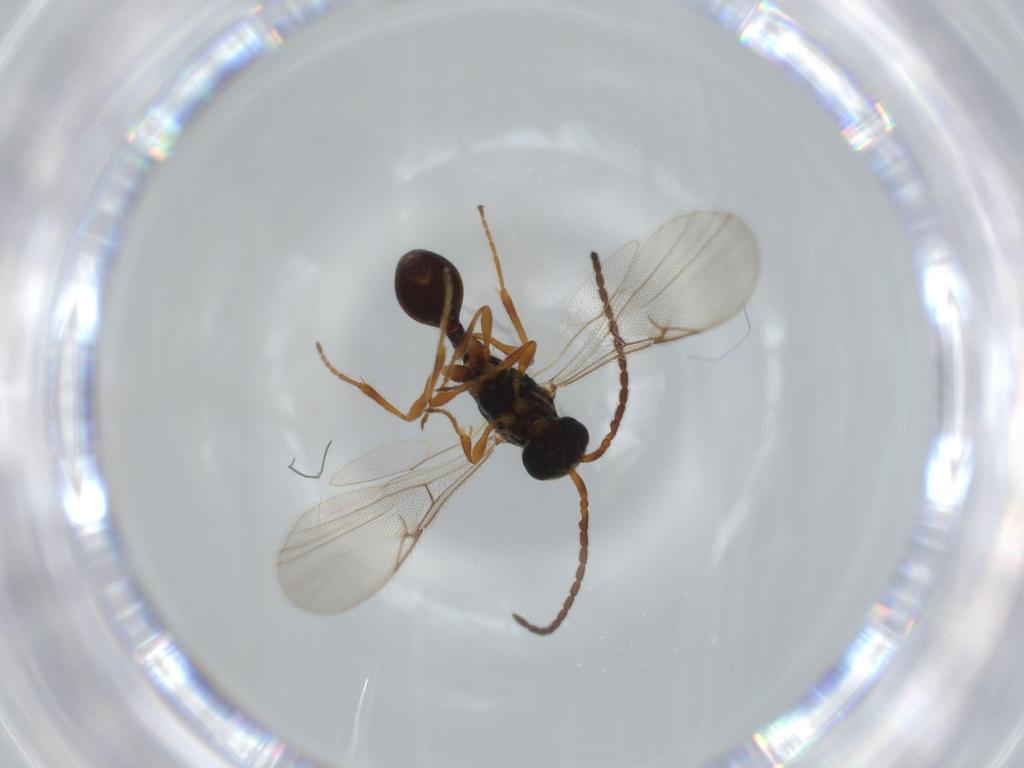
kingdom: Animalia
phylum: Arthropoda
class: Insecta
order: Hymenoptera
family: Diapriidae
